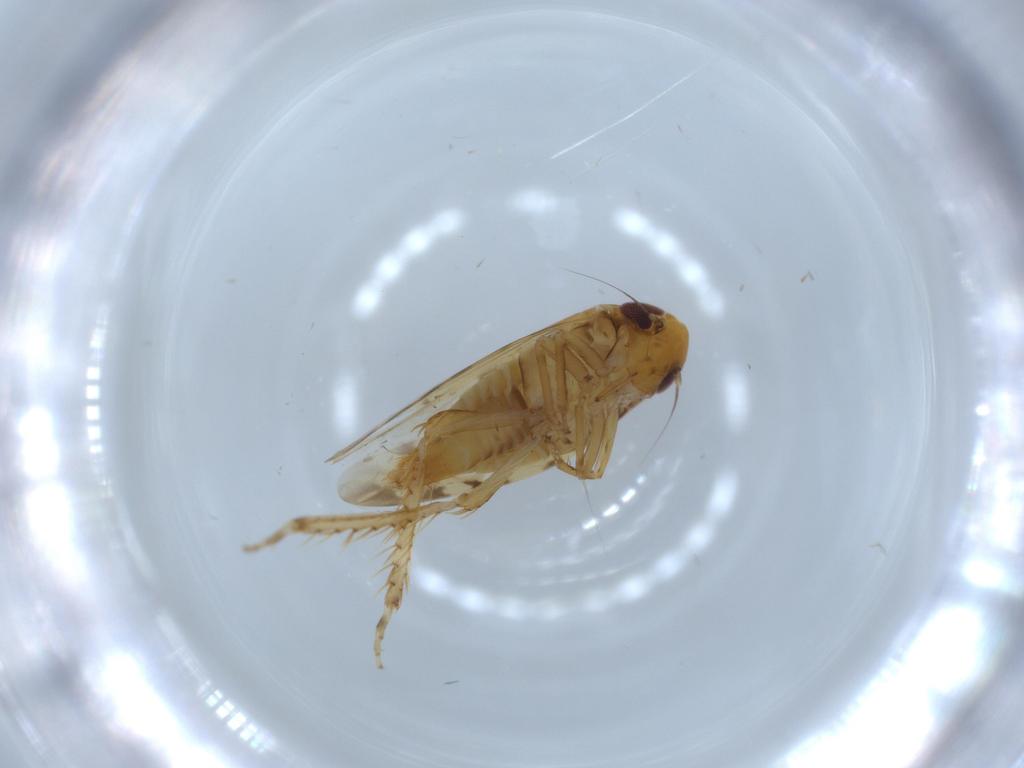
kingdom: Animalia
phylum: Arthropoda
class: Insecta
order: Hemiptera
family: Cicadellidae
